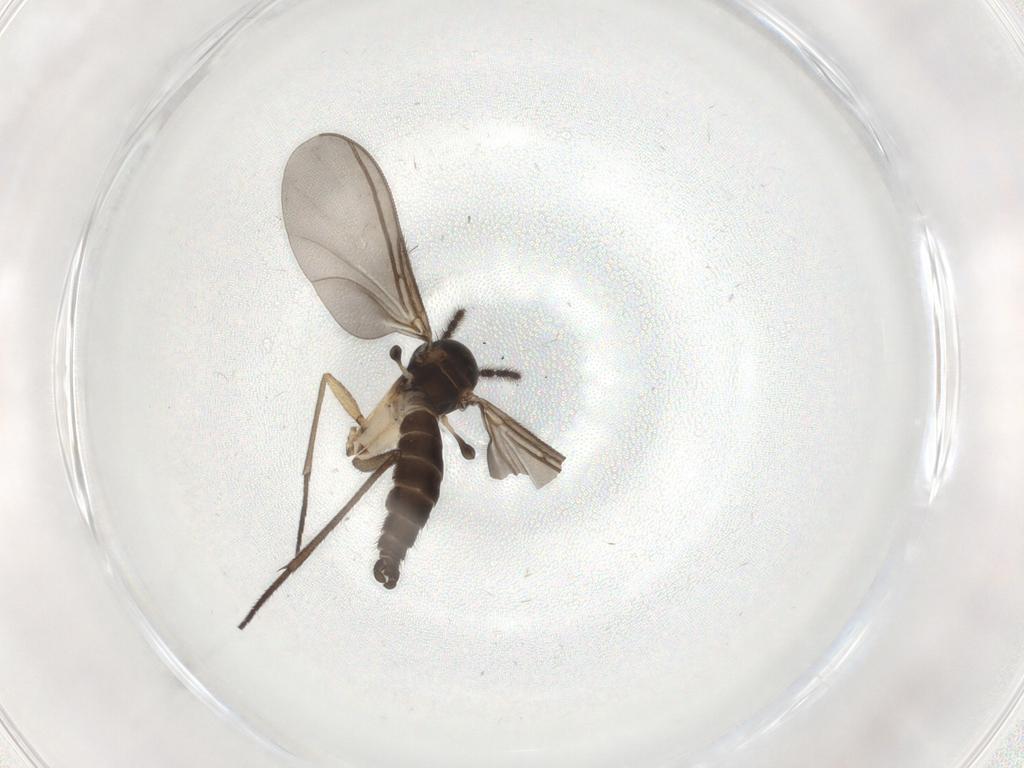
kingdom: Animalia
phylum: Arthropoda
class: Insecta
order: Diptera
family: Sciaridae
